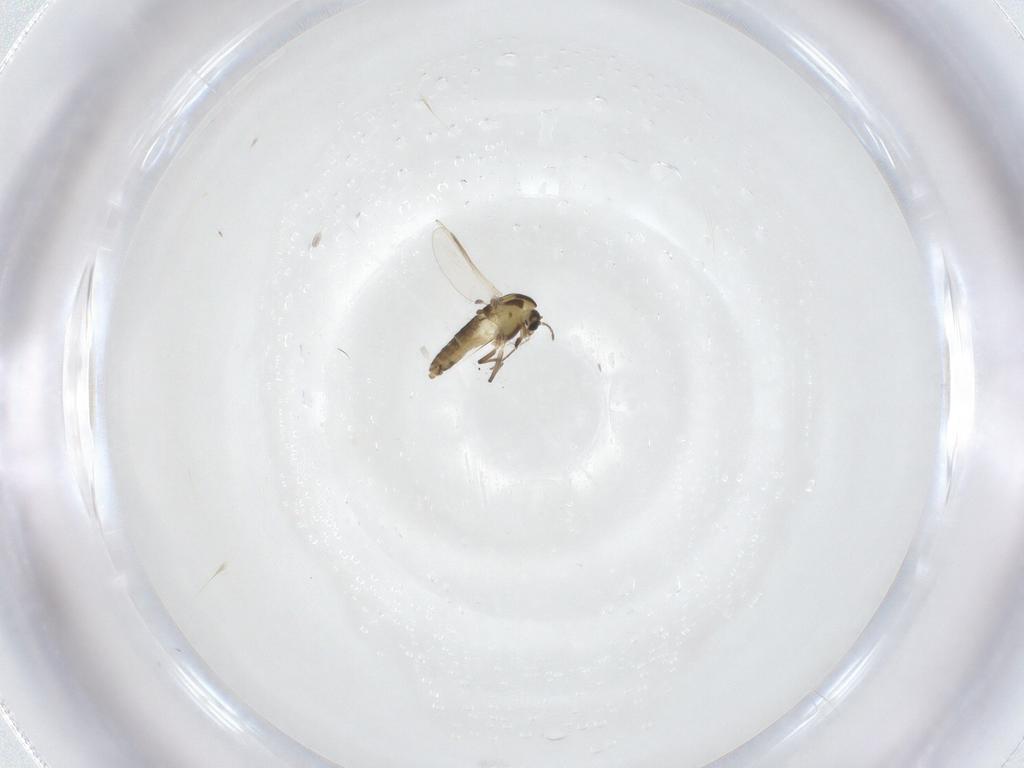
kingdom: Animalia
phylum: Arthropoda
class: Insecta
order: Diptera
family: Chironomidae
